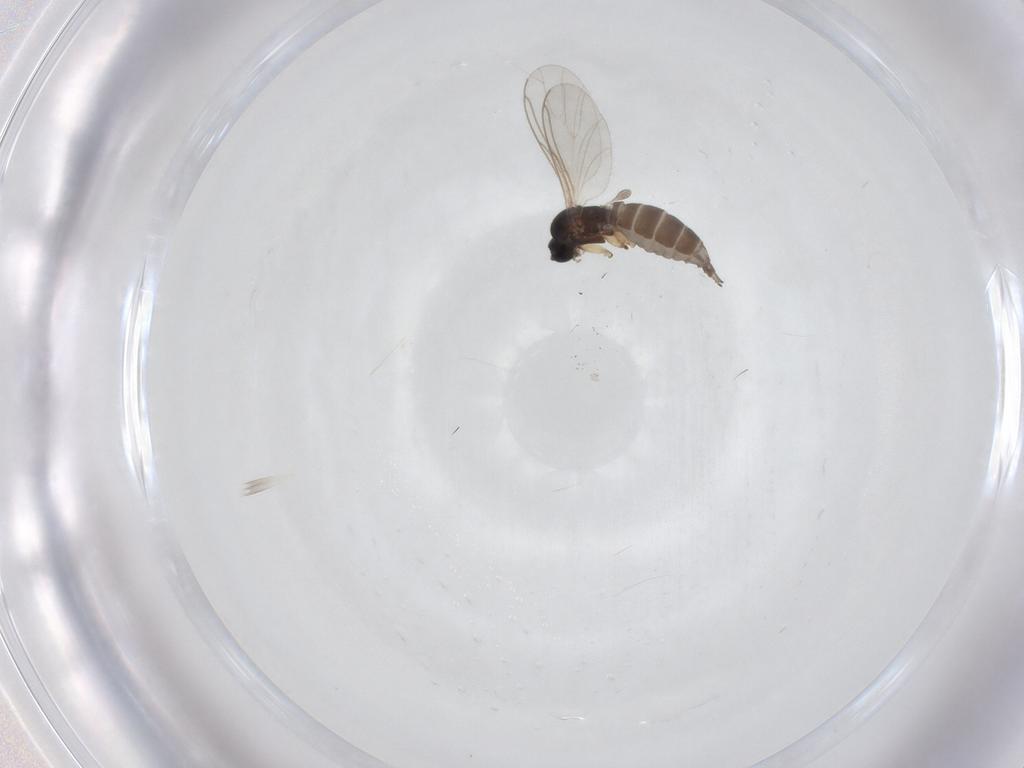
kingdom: Animalia
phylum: Arthropoda
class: Insecta
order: Diptera
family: Sciaridae
